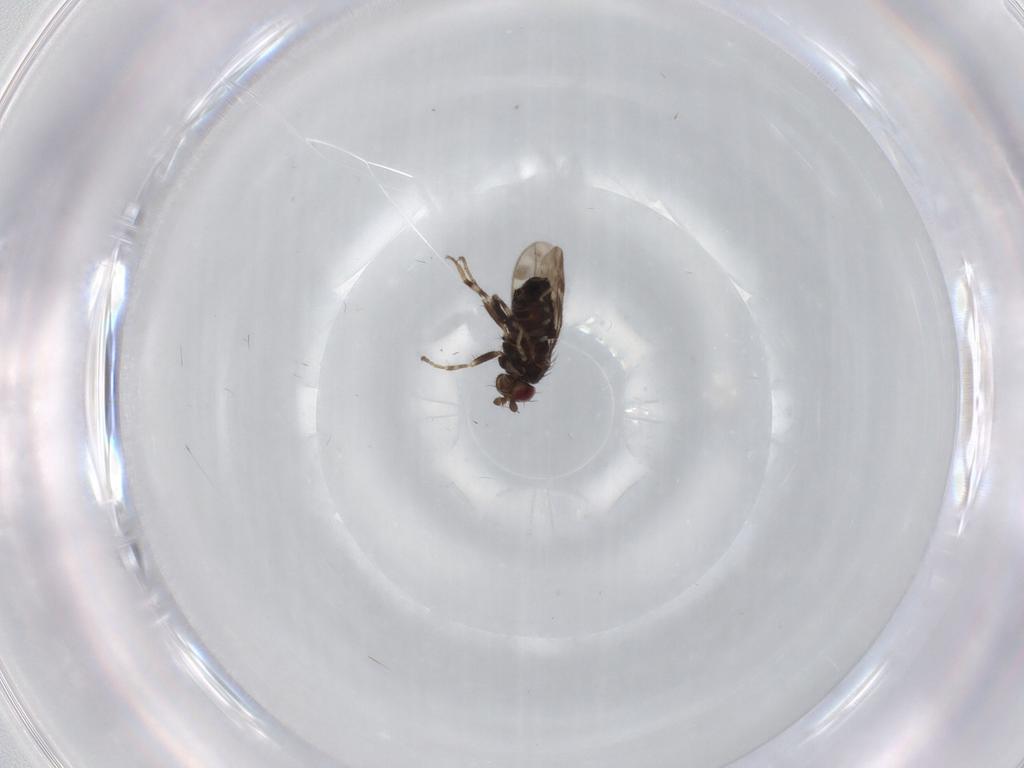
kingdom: Animalia
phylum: Arthropoda
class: Insecta
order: Diptera
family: Sphaeroceridae
